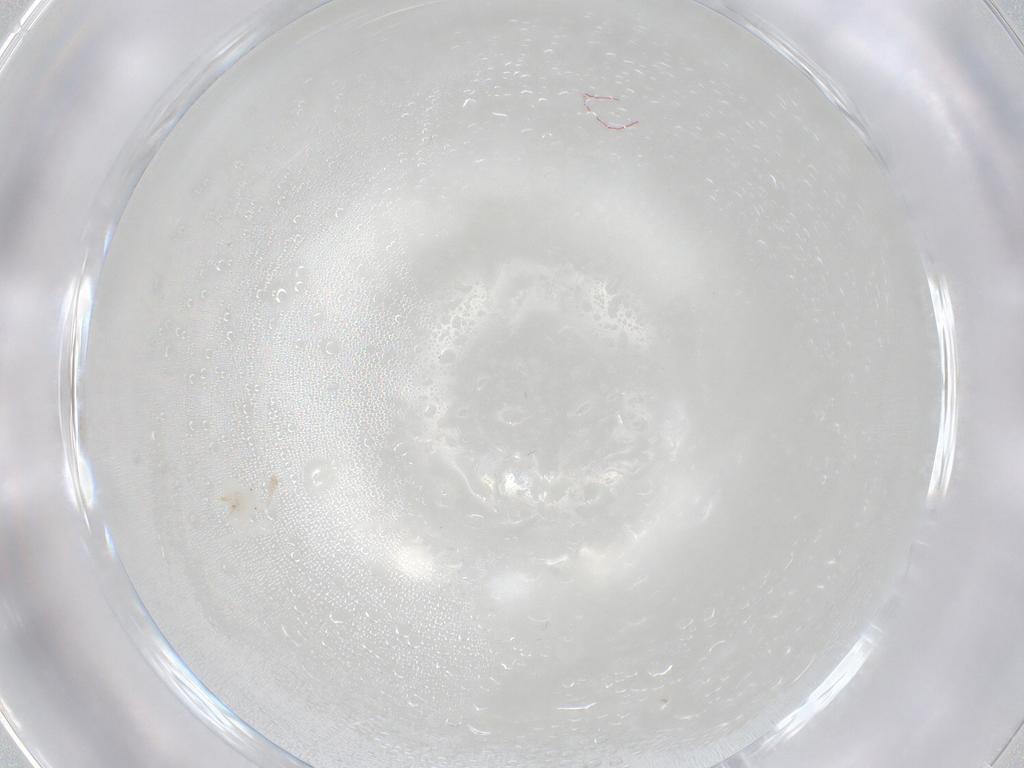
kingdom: Animalia
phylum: Arthropoda
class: Arachnida
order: Trombidiformes
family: Anystidae
